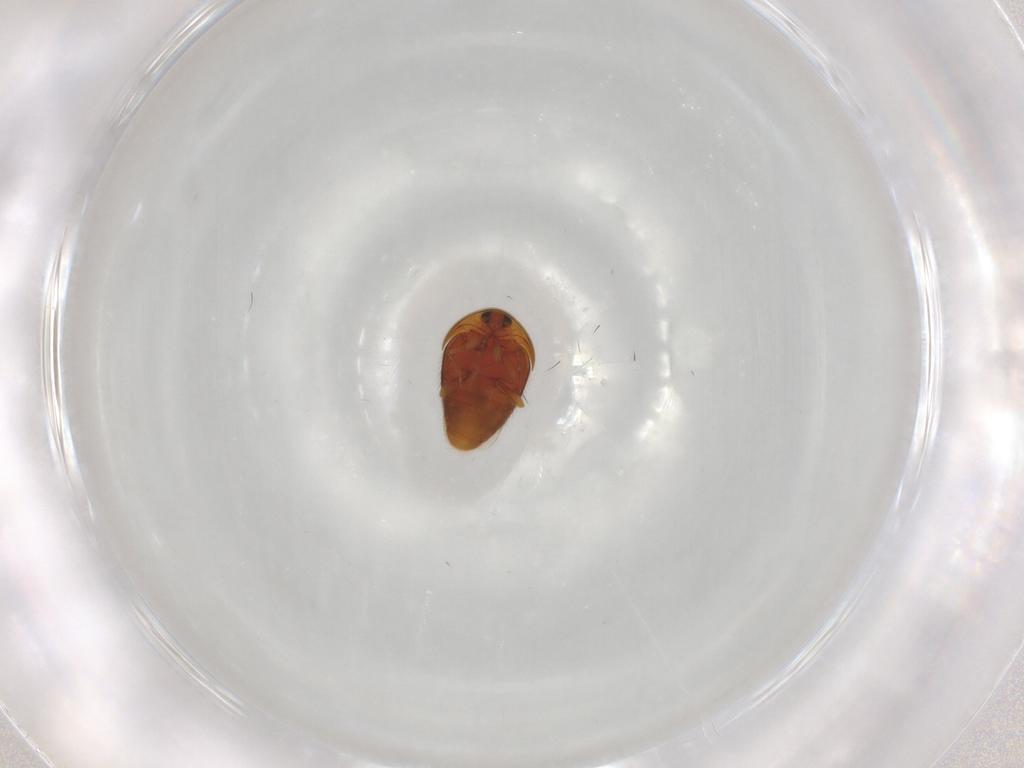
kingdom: Animalia
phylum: Arthropoda
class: Insecta
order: Coleoptera
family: Corylophidae
